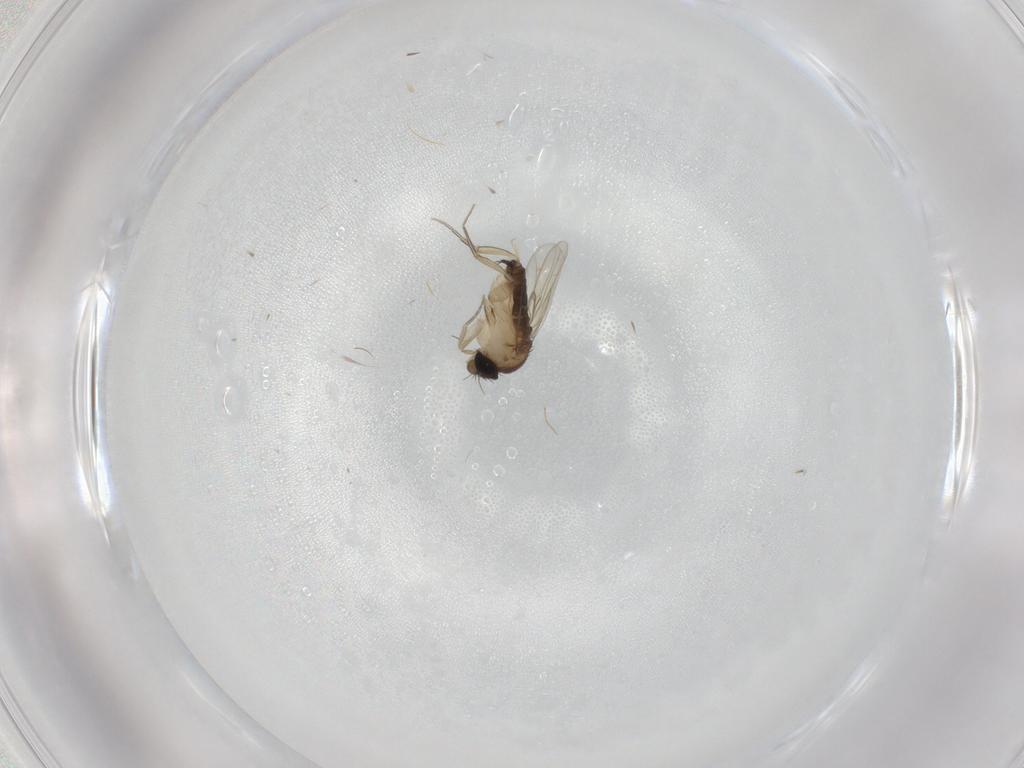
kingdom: Animalia
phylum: Arthropoda
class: Insecta
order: Diptera
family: Phoridae
